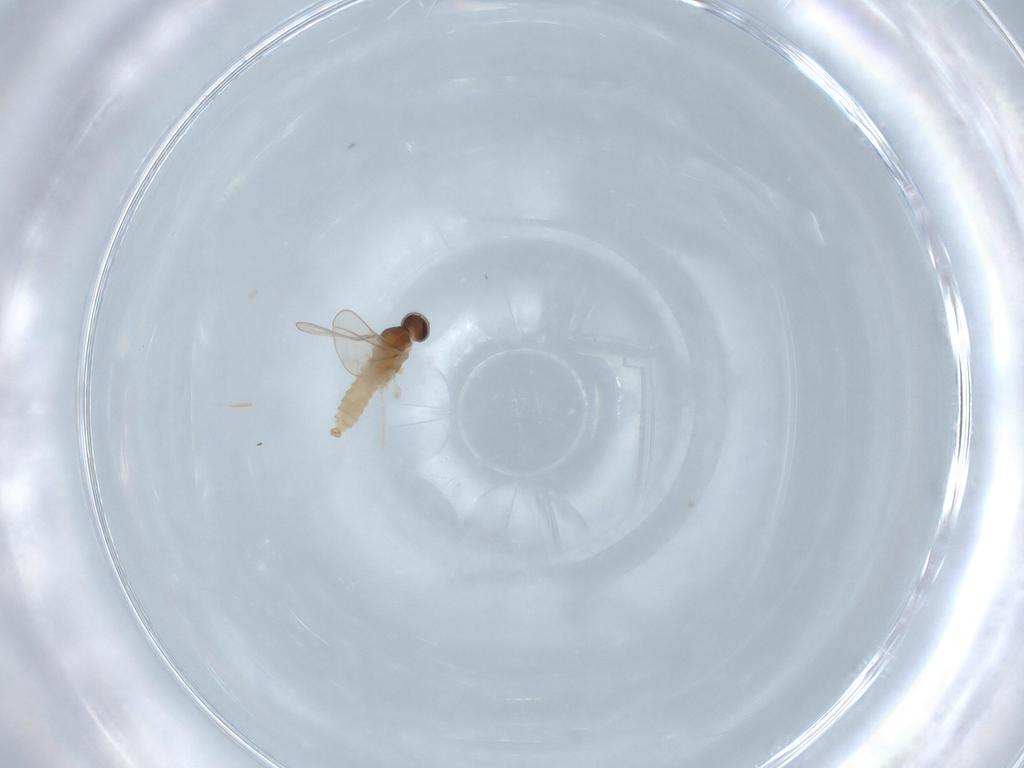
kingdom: Animalia
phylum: Arthropoda
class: Insecta
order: Diptera
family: Cecidomyiidae
